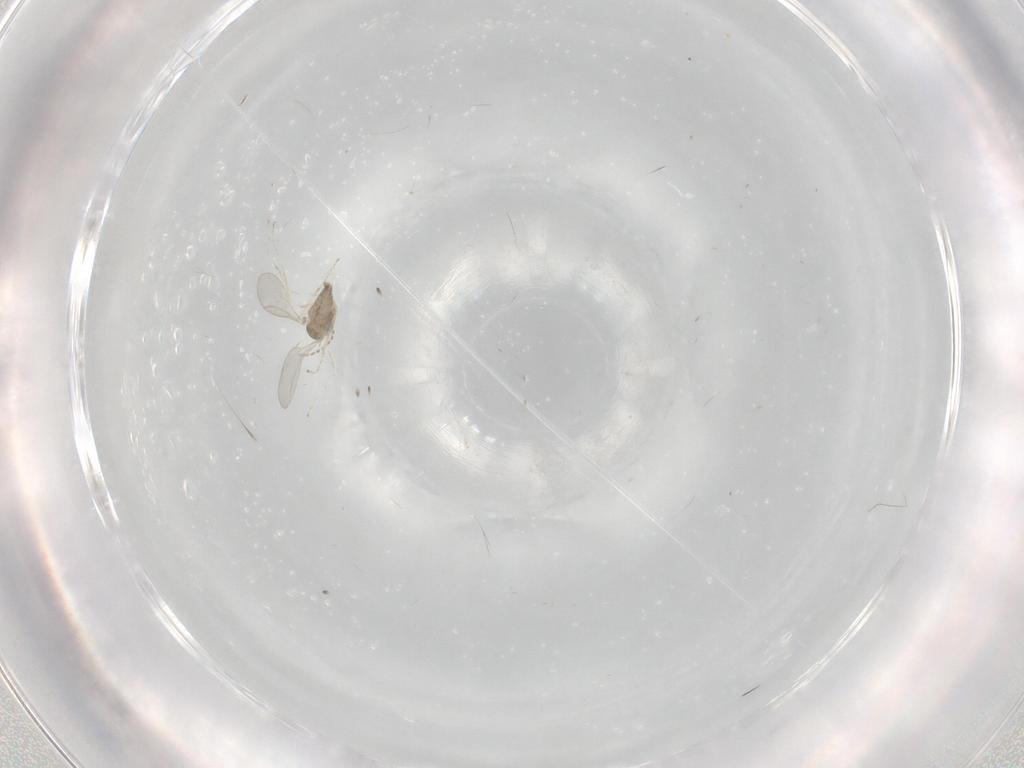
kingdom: Animalia
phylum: Arthropoda
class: Insecta
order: Diptera
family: Cecidomyiidae
